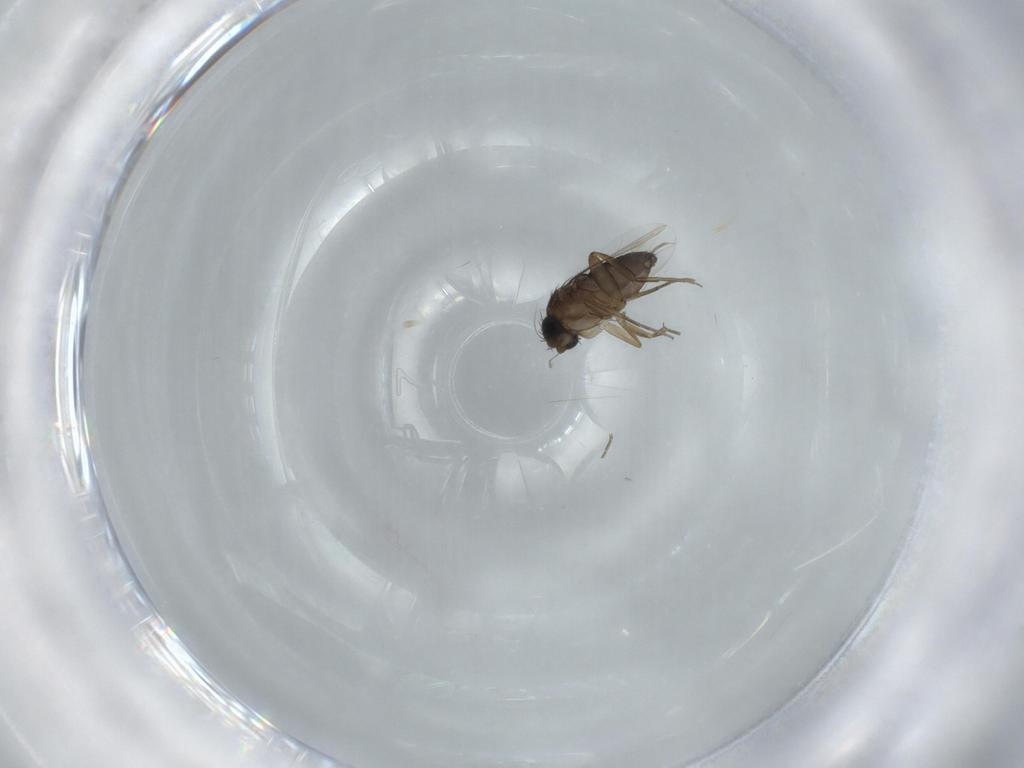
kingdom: Animalia
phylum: Arthropoda
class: Insecta
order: Diptera
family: Phoridae
